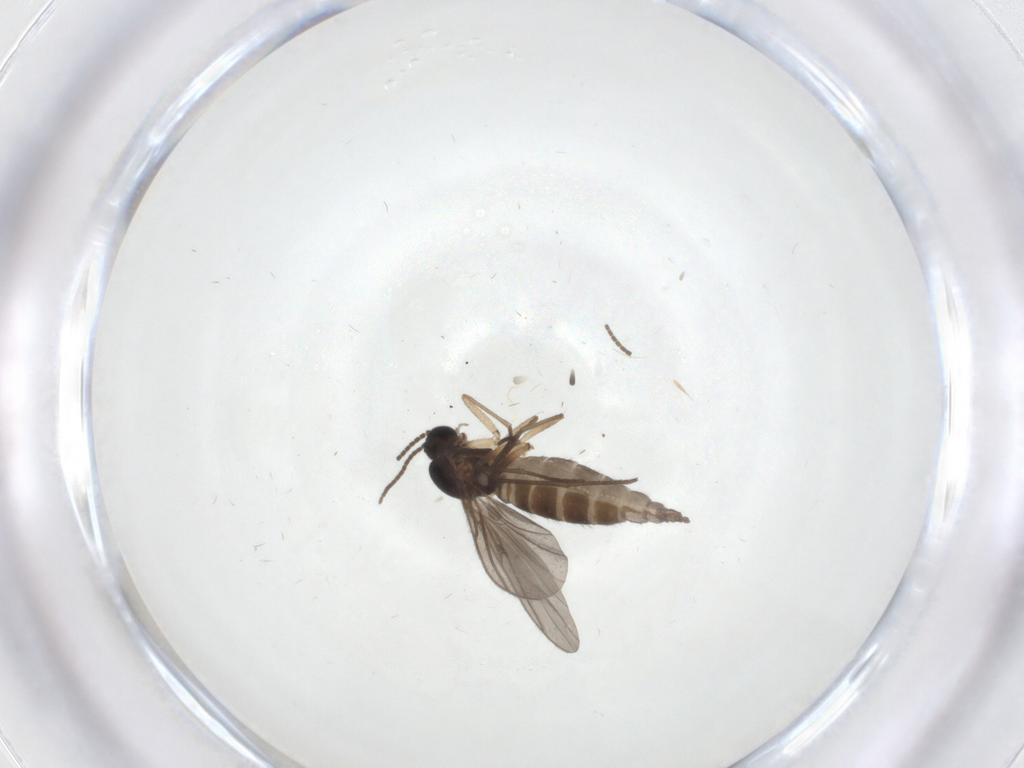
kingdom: Animalia
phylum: Arthropoda
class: Insecta
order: Diptera
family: Sciaridae
